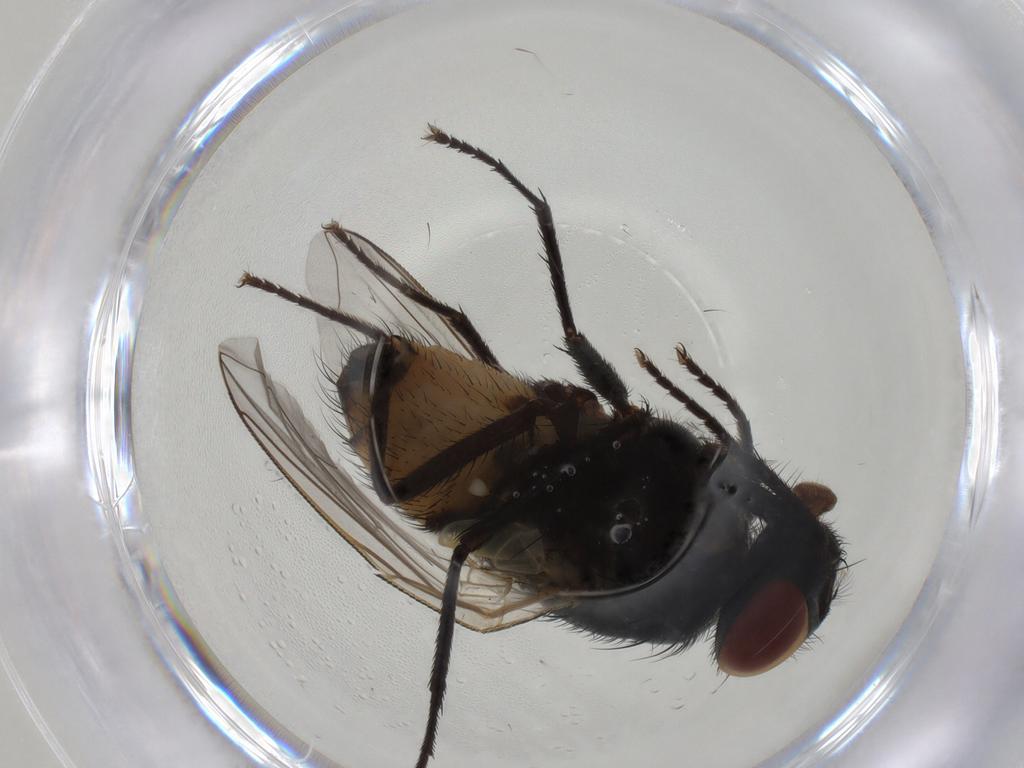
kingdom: Animalia
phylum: Arthropoda
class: Insecta
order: Diptera
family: Muscidae
